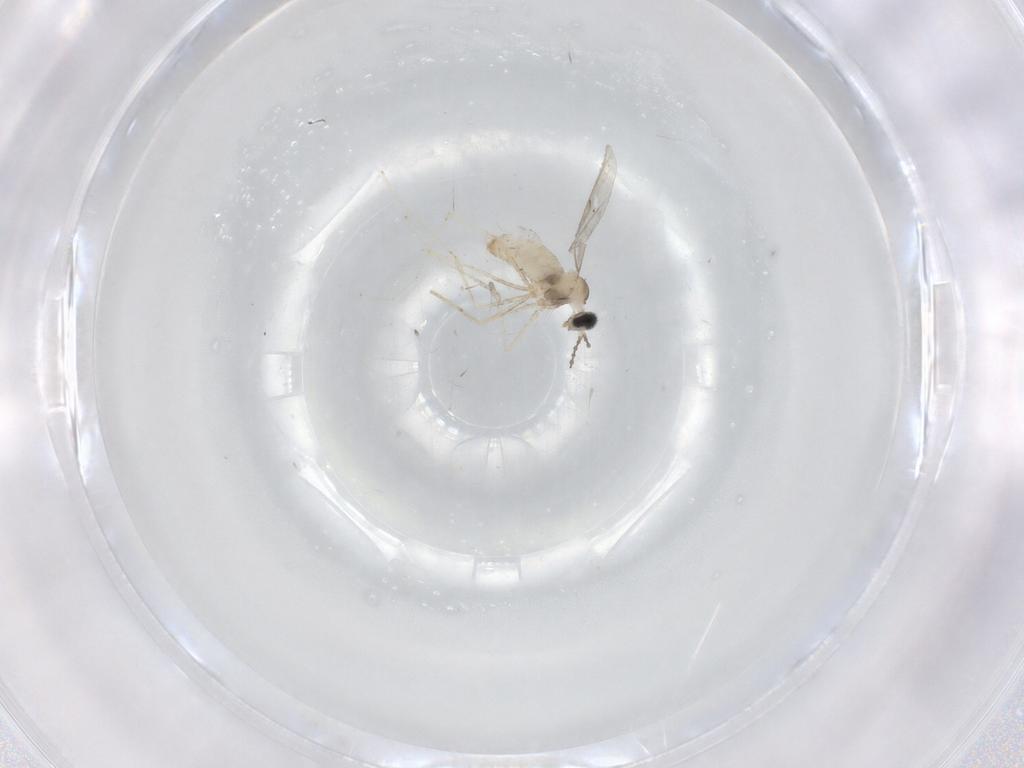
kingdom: Animalia
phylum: Arthropoda
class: Insecta
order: Diptera
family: Cecidomyiidae
